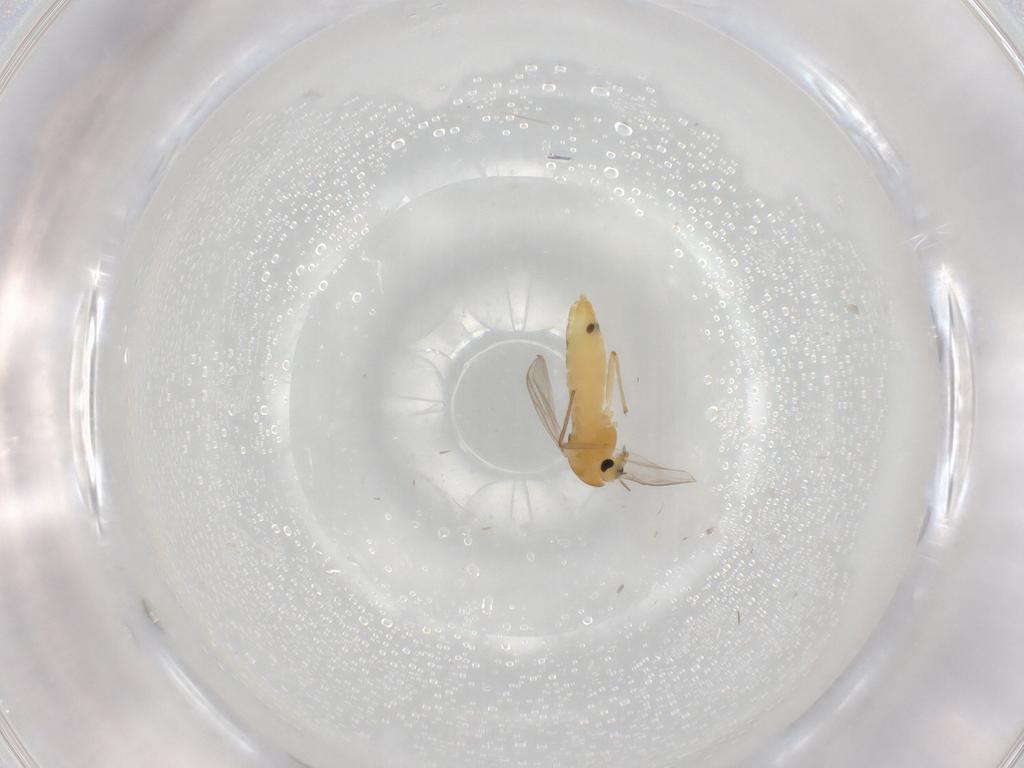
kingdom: Animalia
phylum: Arthropoda
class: Insecta
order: Diptera
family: Chironomidae
